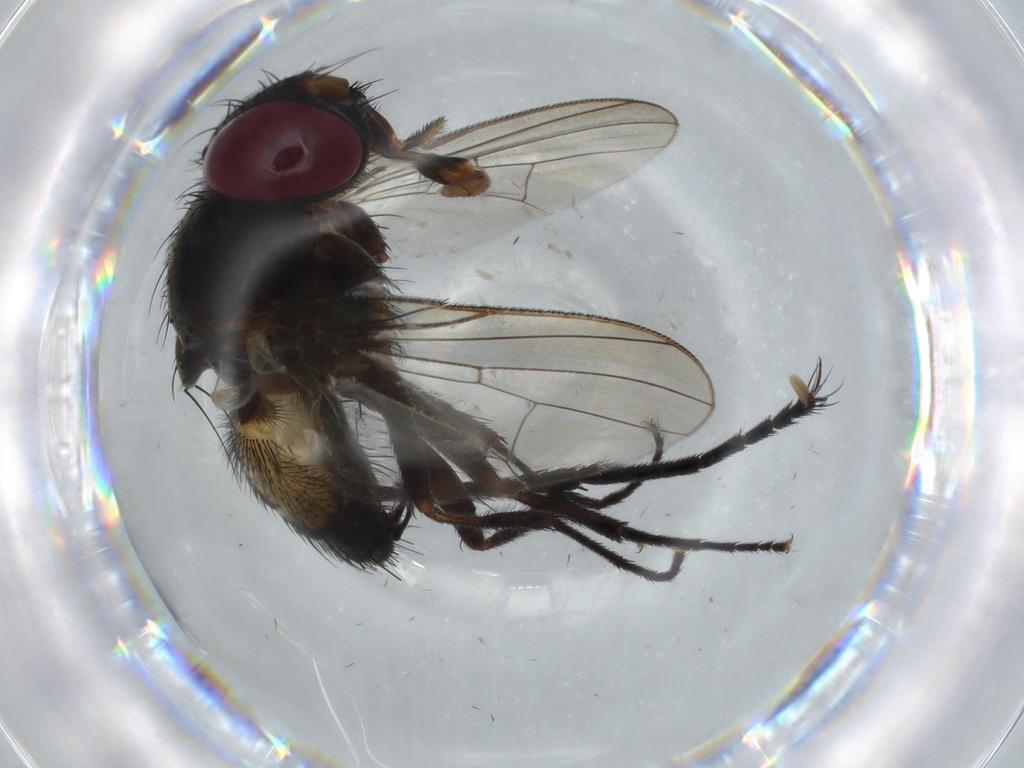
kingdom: Animalia
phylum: Arthropoda
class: Insecta
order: Diptera
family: Fannia
